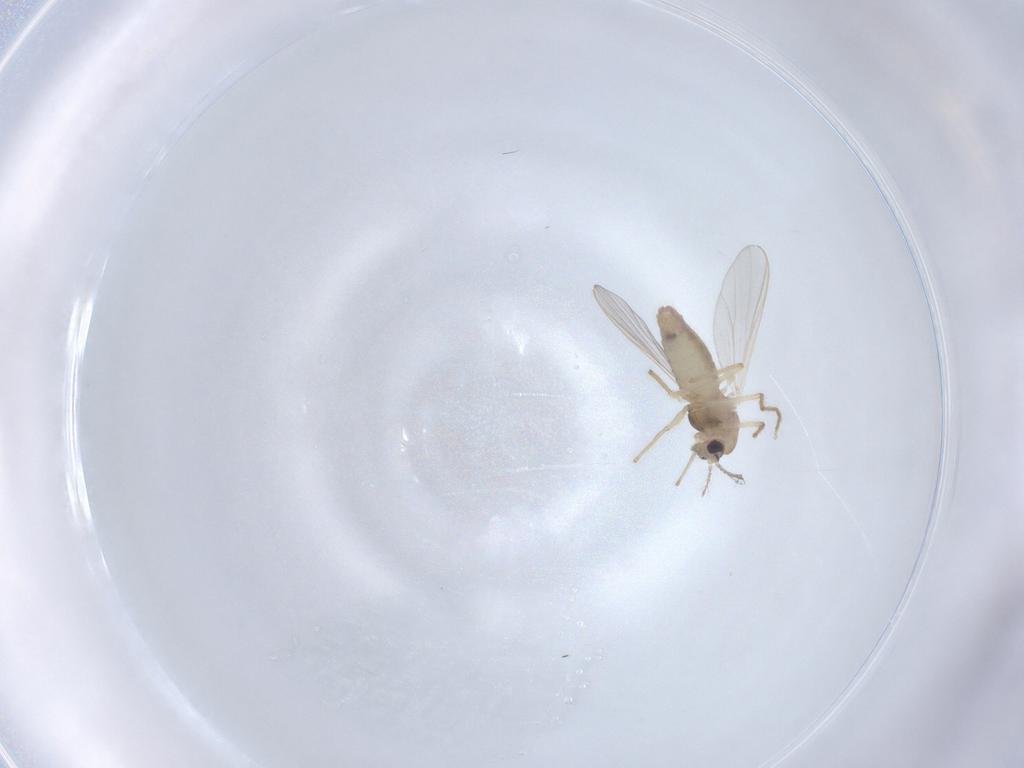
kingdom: Animalia
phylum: Arthropoda
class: Insecta
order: Diptera
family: Chironomidae
